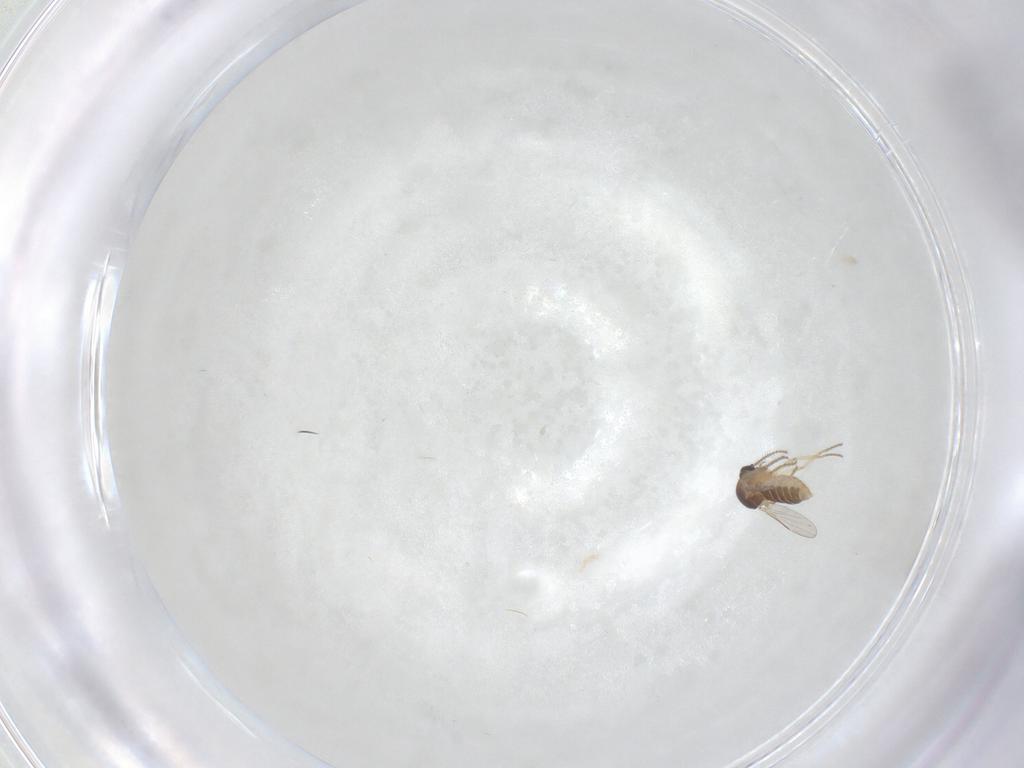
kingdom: Animalia
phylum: Arthropoda
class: Insecta
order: Diptera
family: Ceratopogonidae
